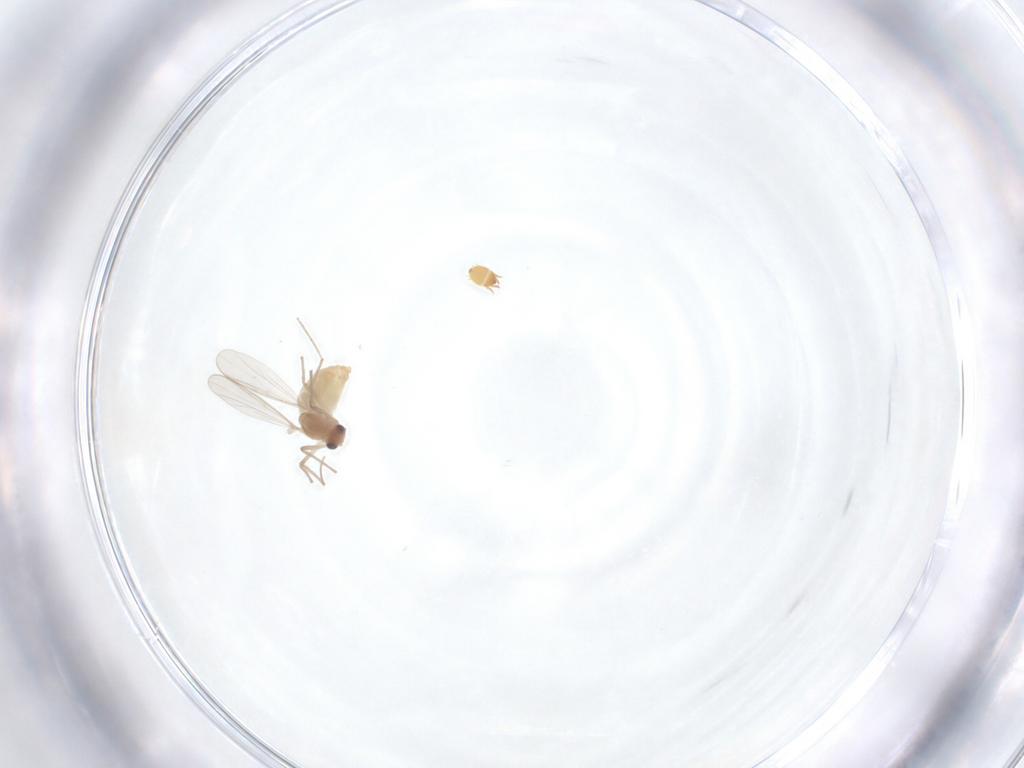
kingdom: Animalia
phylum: Arthropoda
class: Insecta
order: Diptera
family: Chironomidae
